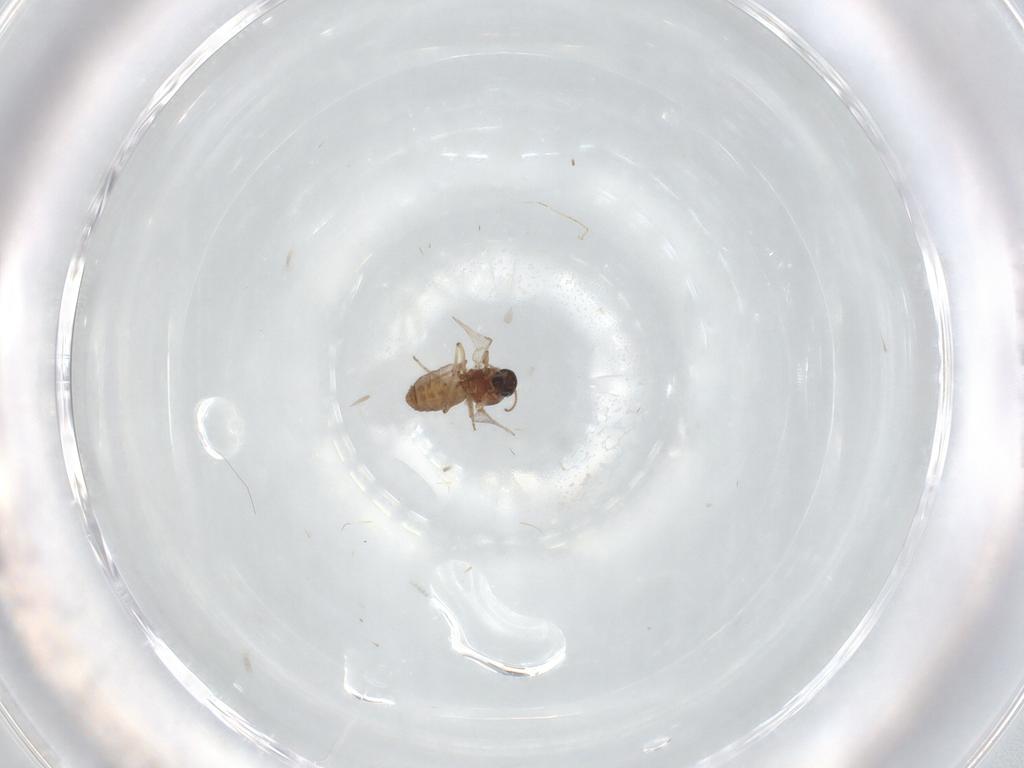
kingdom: Animalia
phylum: Arthropoda
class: Insecta
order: Diptera
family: Ceratopogonidae
